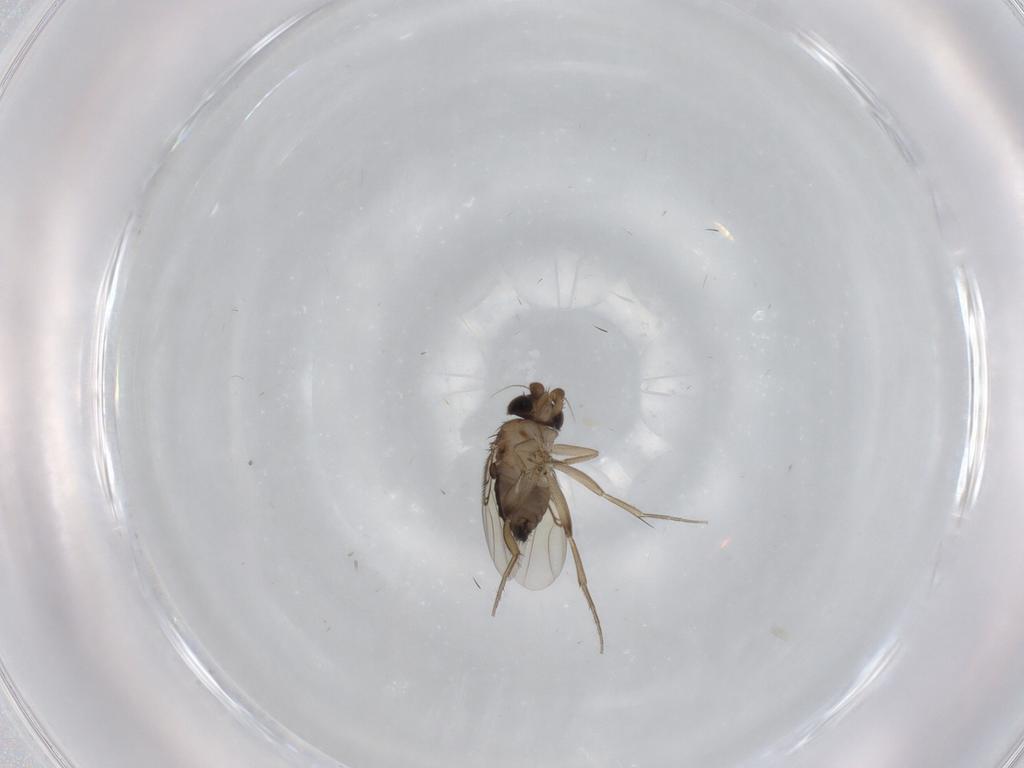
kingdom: Animalia
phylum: Arthropoda
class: Insecta
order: Diptera
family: Phoridae
